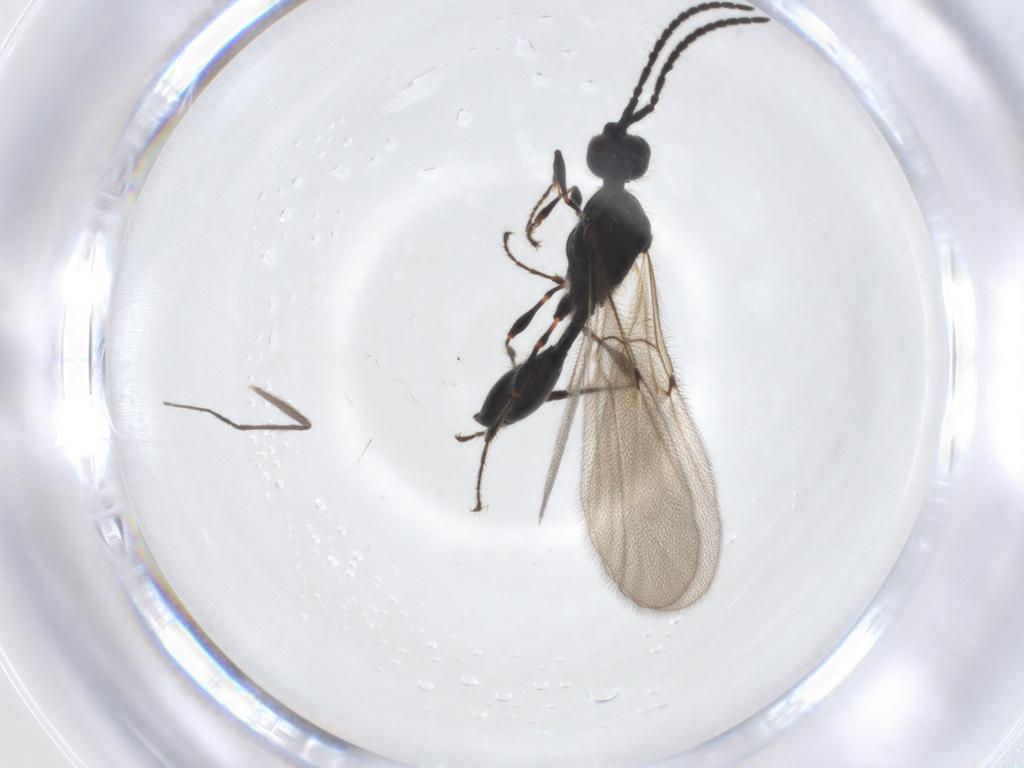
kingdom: Animalia
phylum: Arthropoda
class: Insecta
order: Hymenoptera
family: Diapriidae
